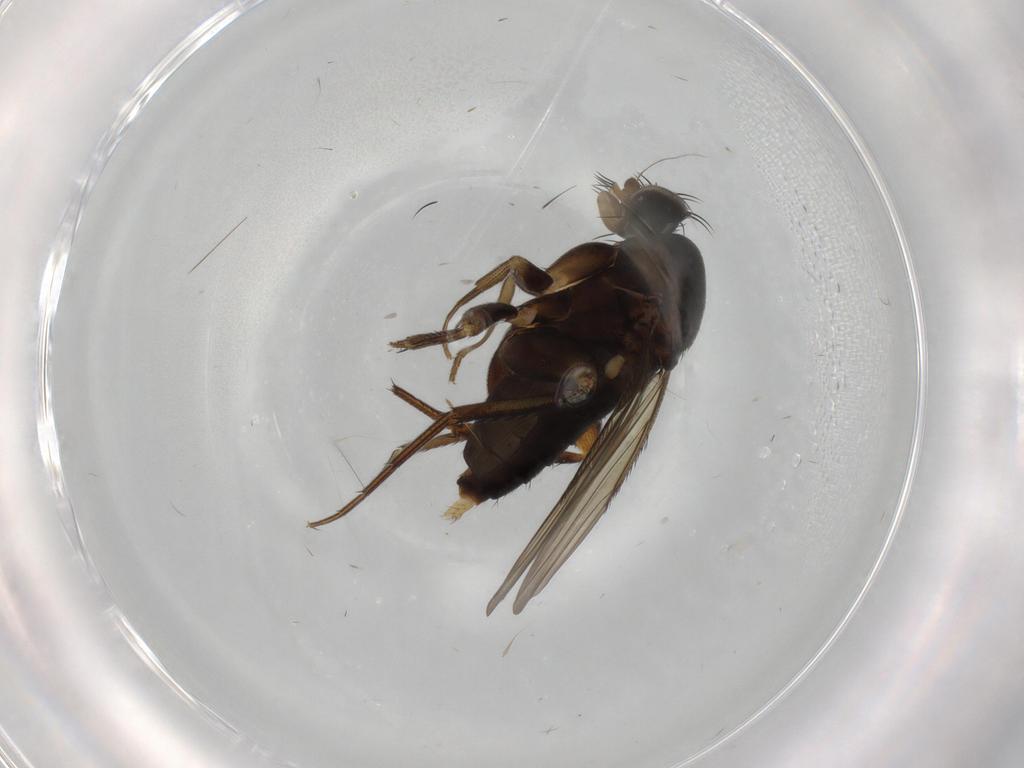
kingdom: Animalia
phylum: Arthropoda
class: Insecta
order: Diptera
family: Phoridae
